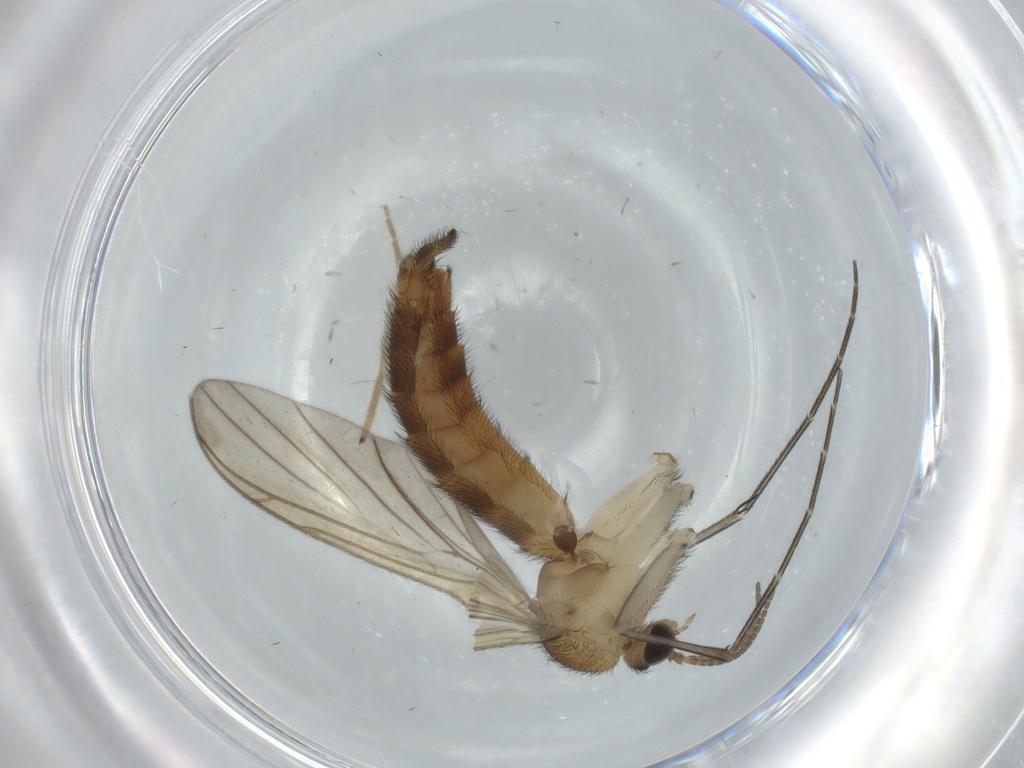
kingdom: Animalia
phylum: Arthropoda
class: Insecta
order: Diptera
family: Keroplatidae
